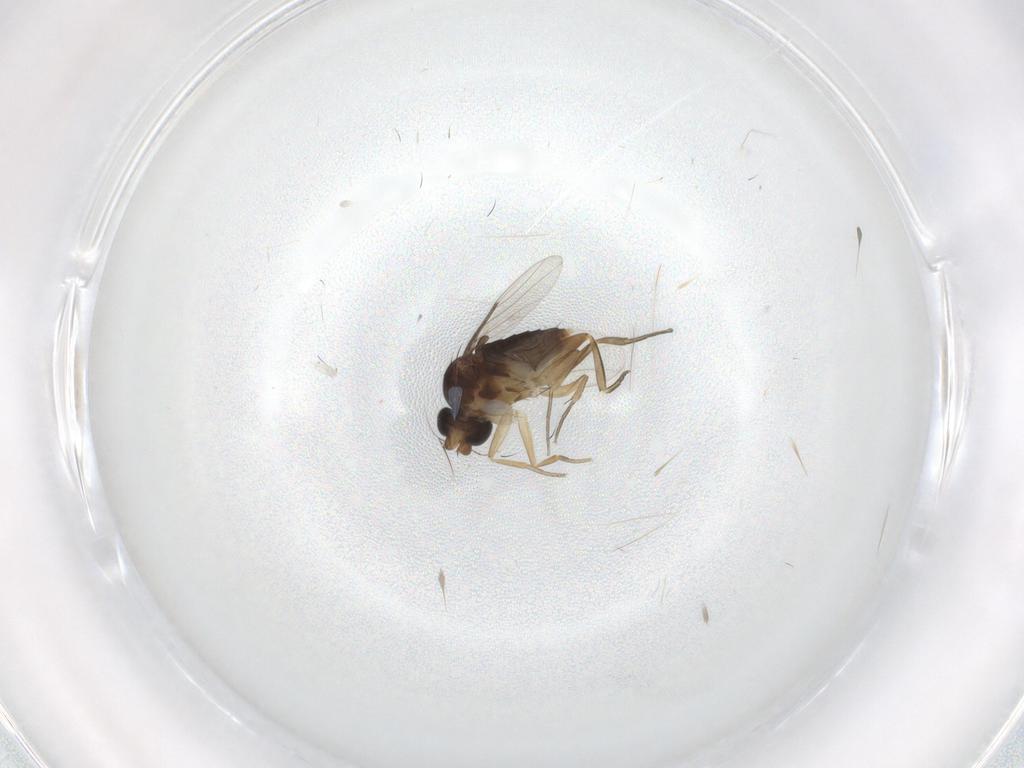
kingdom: Animalia
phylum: Arthropoda
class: Insecta
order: Diptera
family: Phoridae
